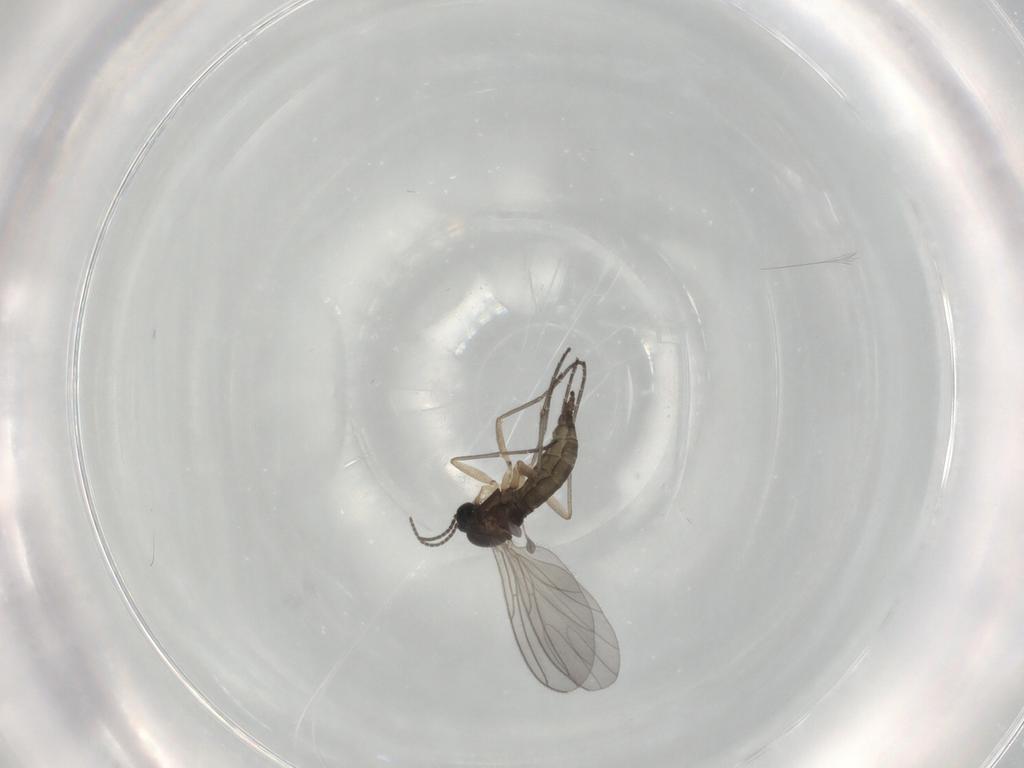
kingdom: Animalia
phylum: Arthropoda
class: Insecta
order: Diptera
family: Sciaridae
